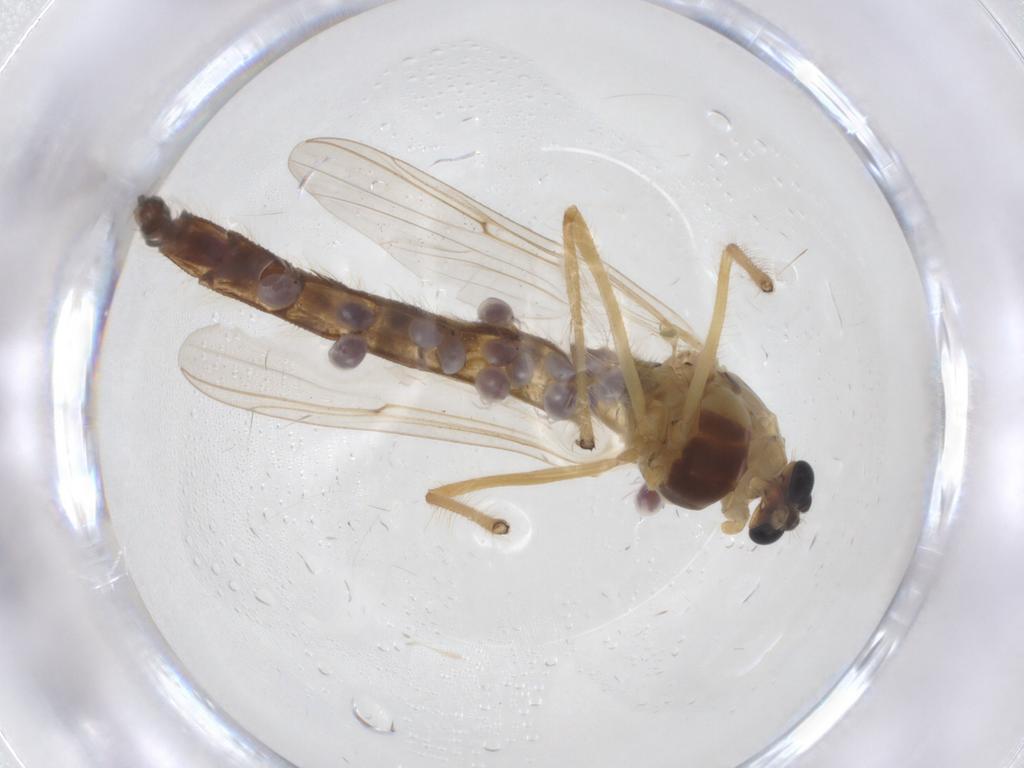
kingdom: Animalia
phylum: Arthropoda
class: Insecta
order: Diptera
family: Chironomidae
